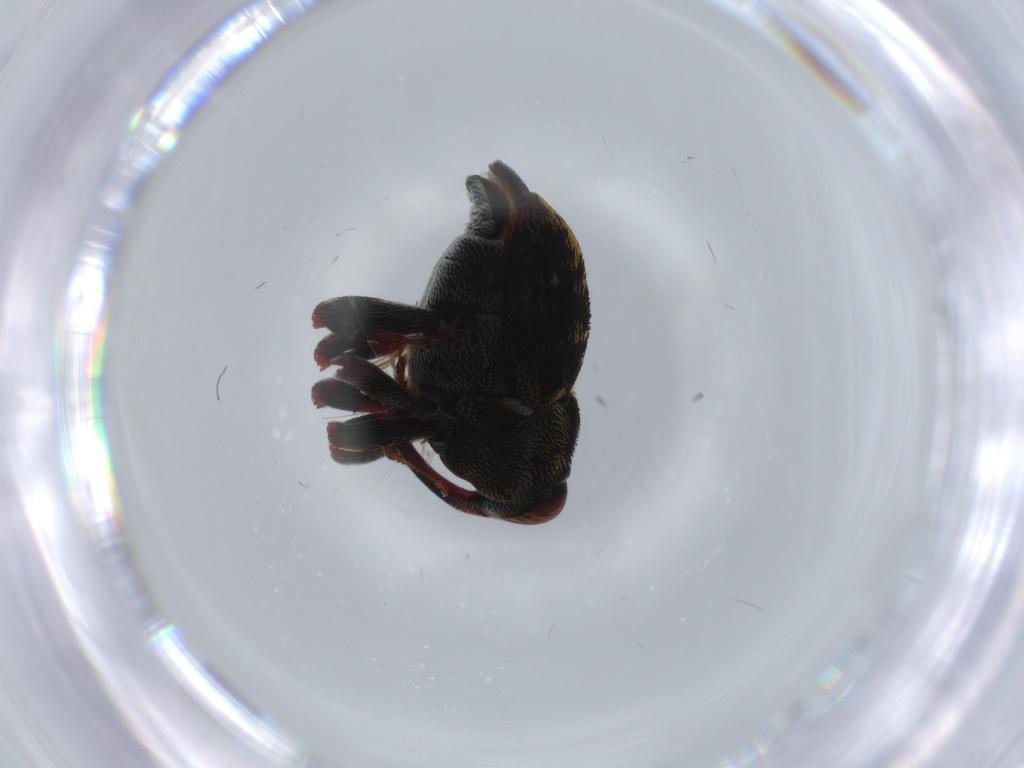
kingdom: Animalia
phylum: Arthropoda
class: Insecta
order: Coleoptera
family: Curculionidae
